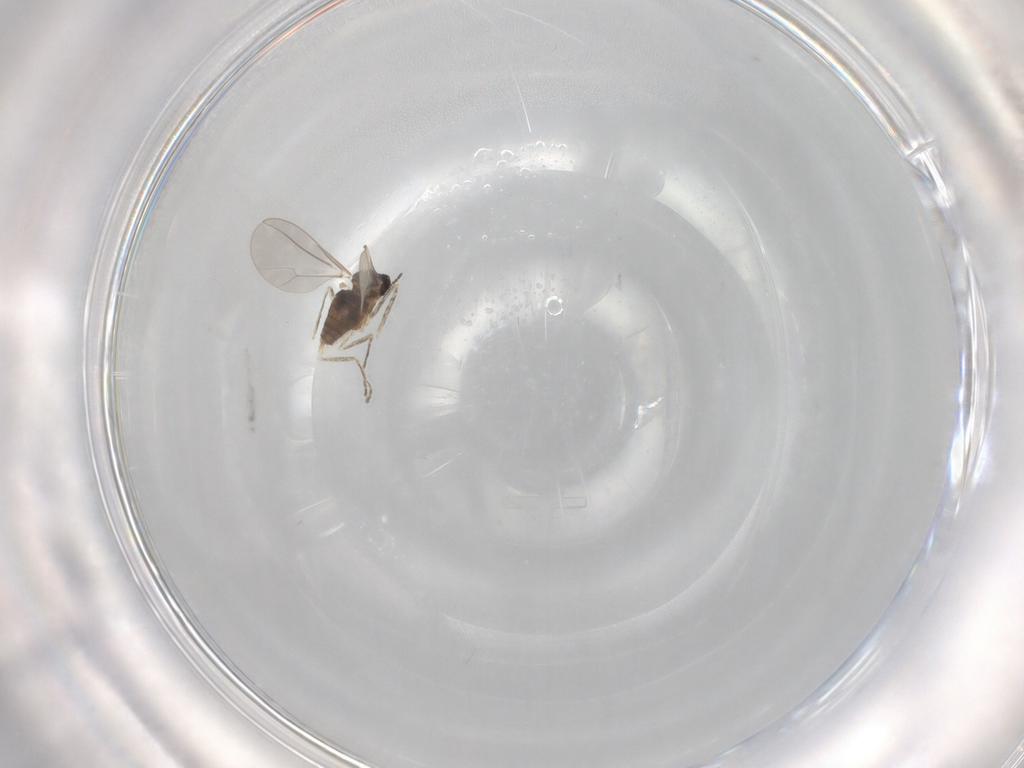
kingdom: Animalia
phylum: Arthropoda
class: Insecta
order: Diptera
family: Cecidomyiidae
